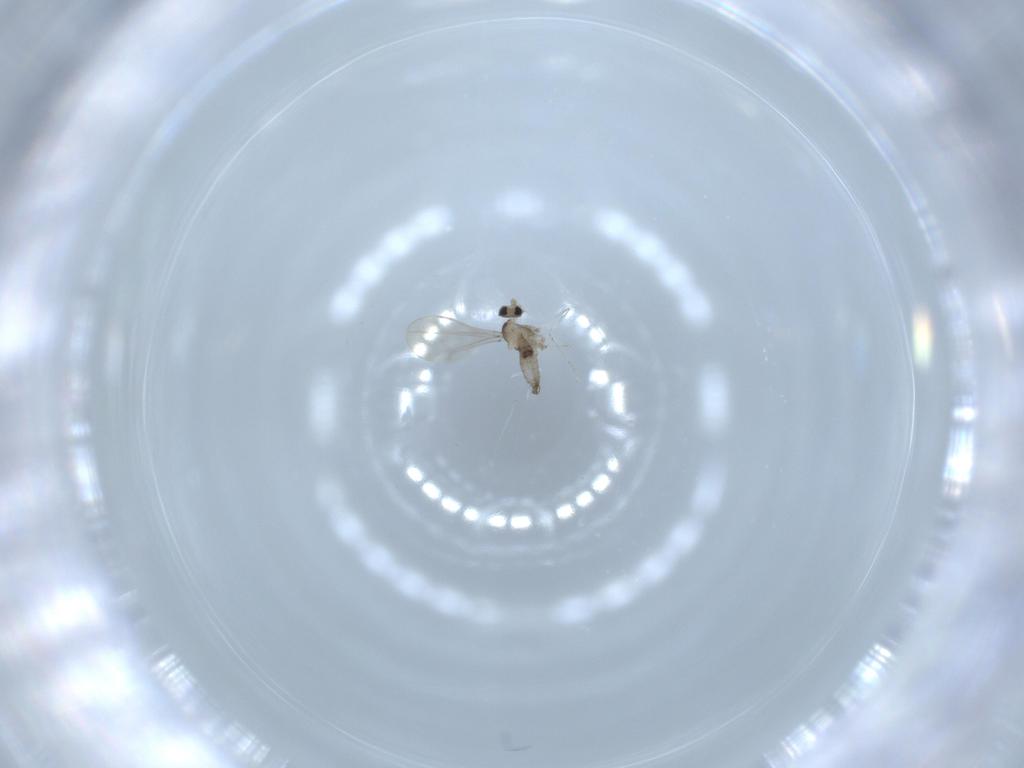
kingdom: Animalia
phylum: Arthropoda
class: Insecta
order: Diptera
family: Cecidomyiidae
